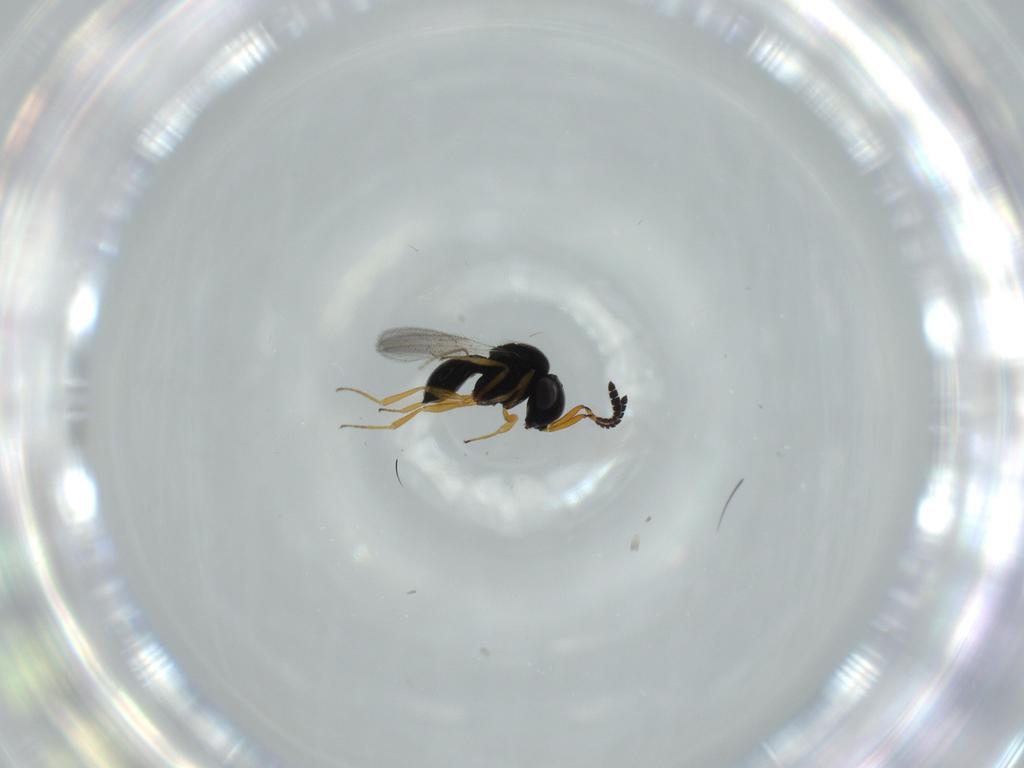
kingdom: Animalia
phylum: Arthropoda
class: Insecta
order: Hymenoptera
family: Scelionidae
